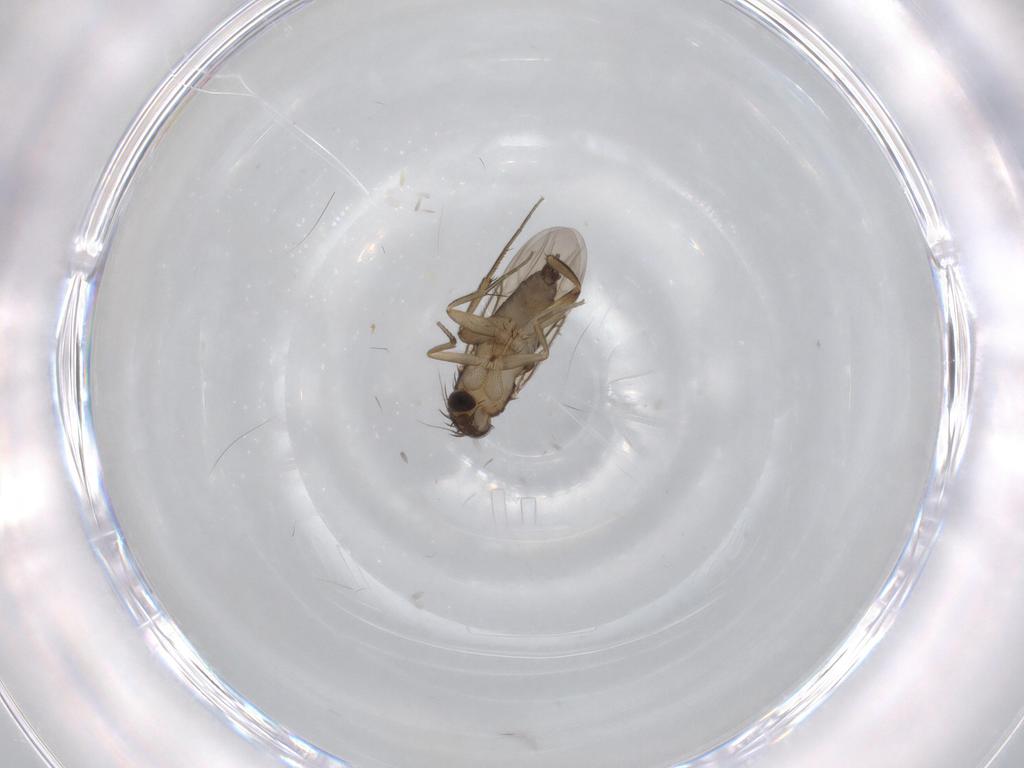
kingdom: Animalia
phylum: Arthropoda
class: Insecta
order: Diptera
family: Phoridae
